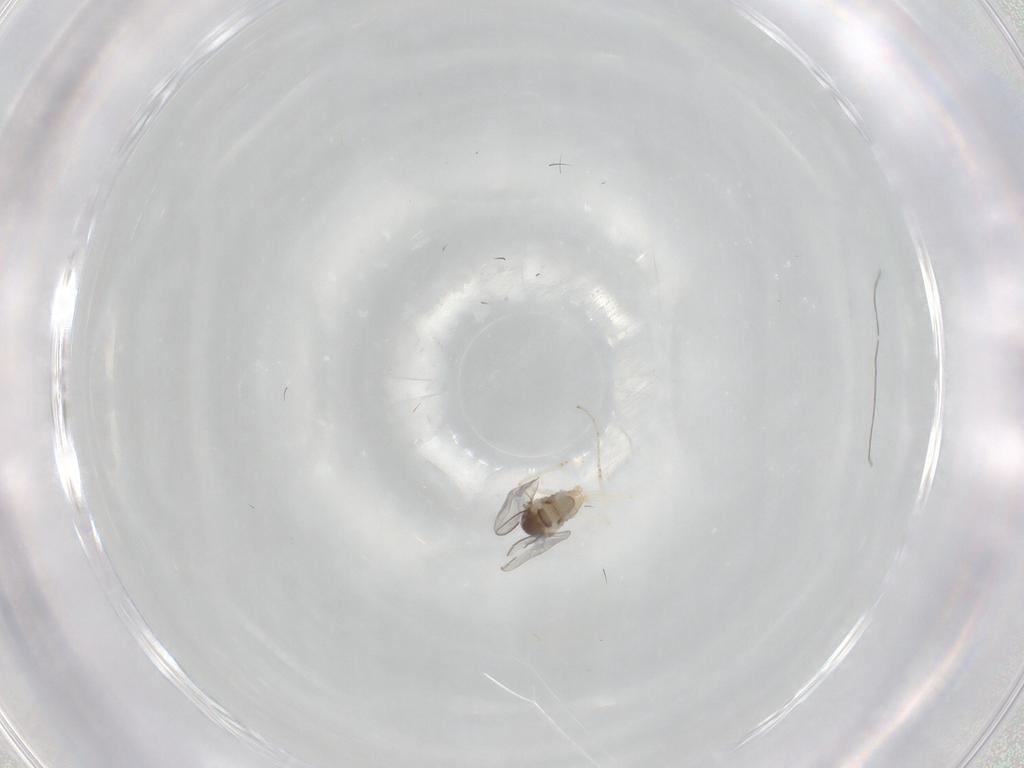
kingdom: Animalia
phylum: Arthropoda
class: Insecta
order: Diptera
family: Cecidomyiidae
